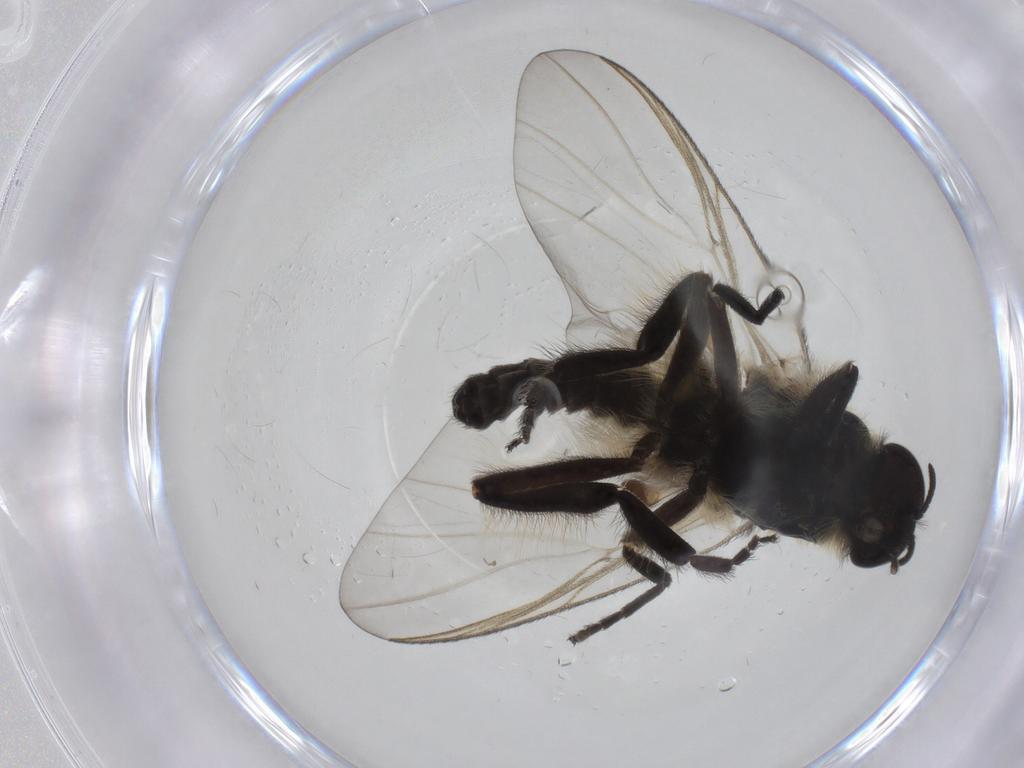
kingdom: Animalia
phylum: Arthropoda
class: Insecta
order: Diptera
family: Simuliidae
